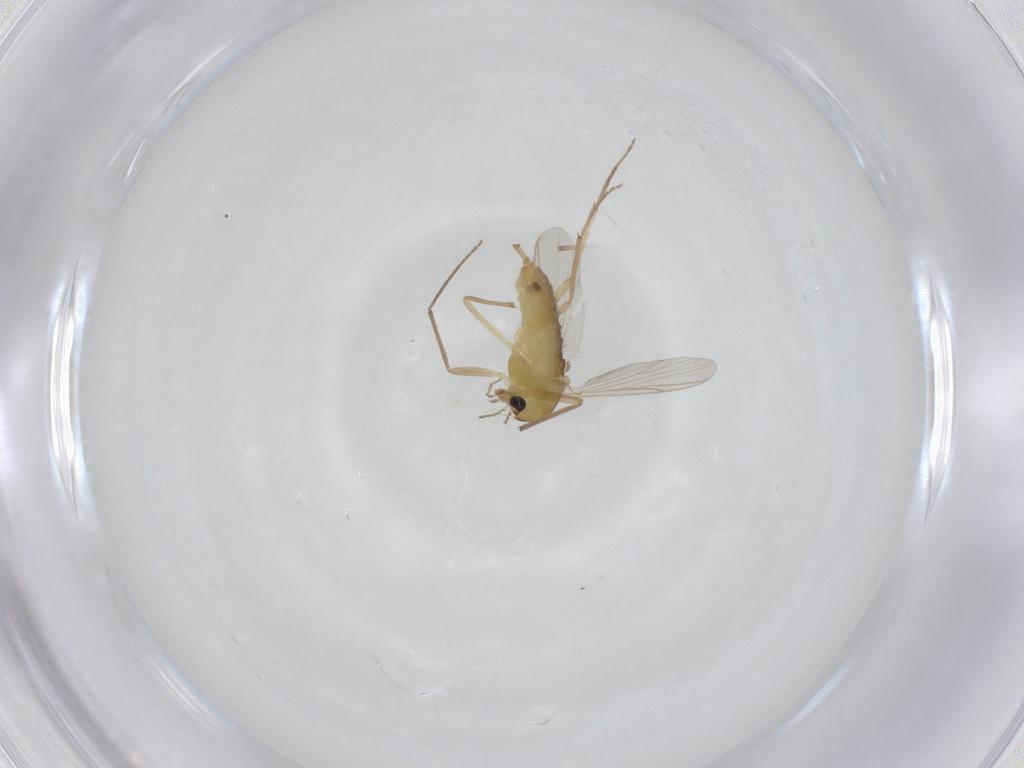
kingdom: Animalia
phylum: Arthropoda
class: Insecta
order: Diptera
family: Chironomidae
